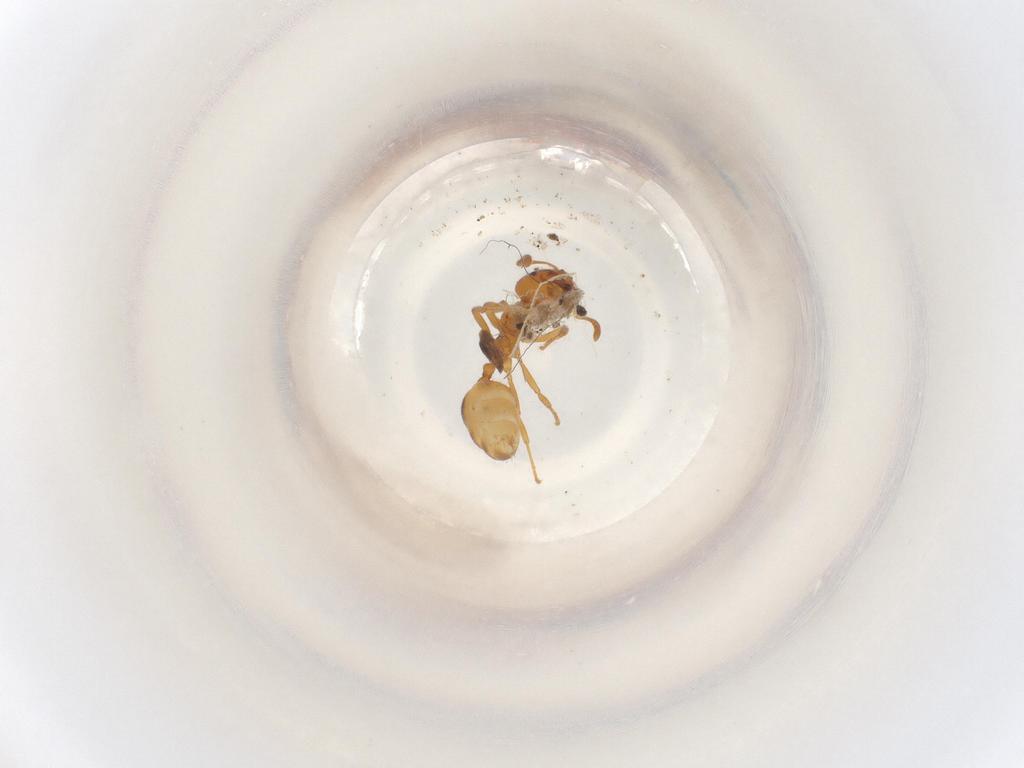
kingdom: Animalia
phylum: Arthropoda
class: Insecta
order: Hymenoptera
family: Formicidae
